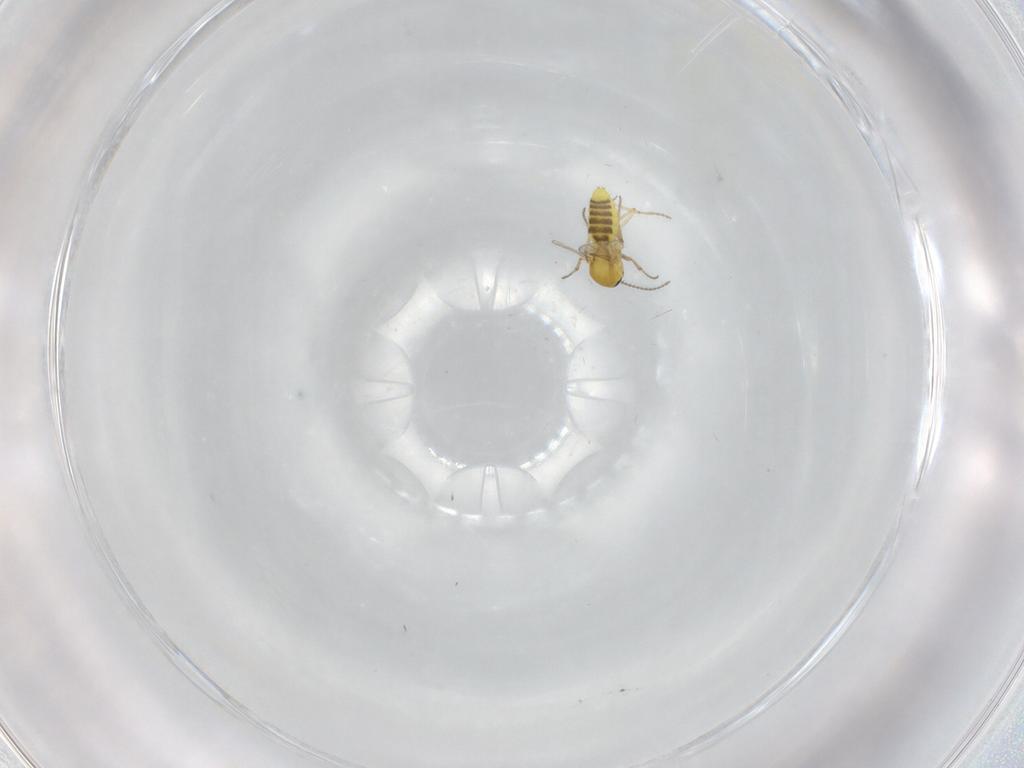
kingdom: Animalia
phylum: Arthropoda
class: Insecta
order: Diptera
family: Ceratopogonidae
